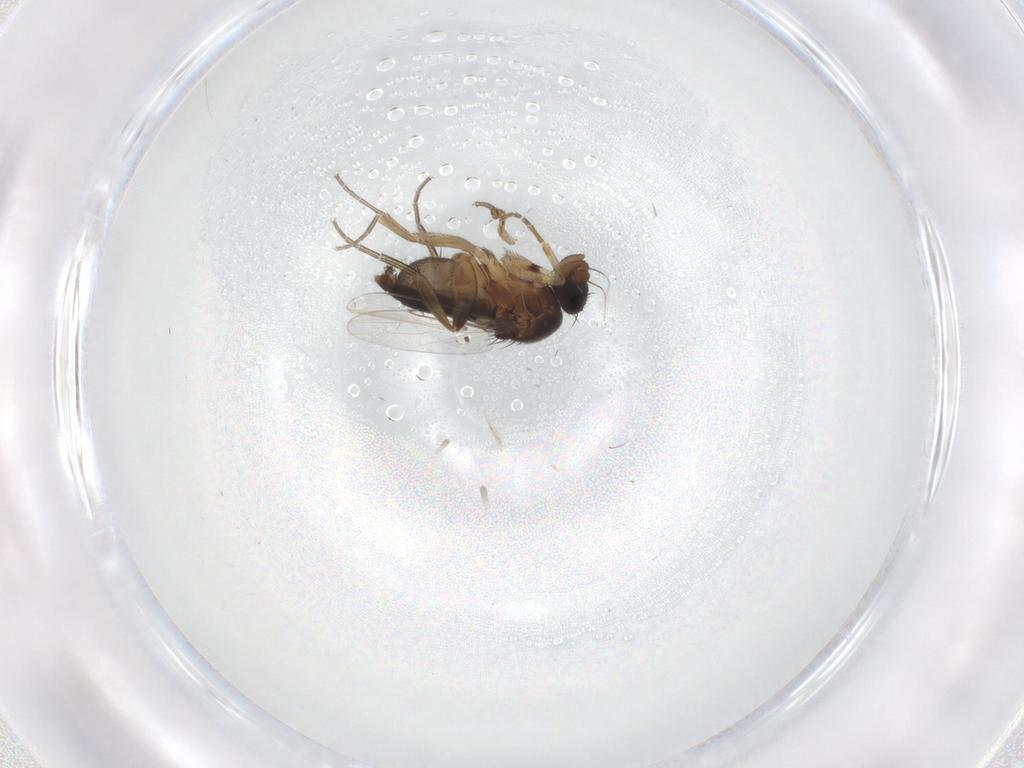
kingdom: Animalia
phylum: Arthropoda
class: Insecta
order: Diptera
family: Phoridae
